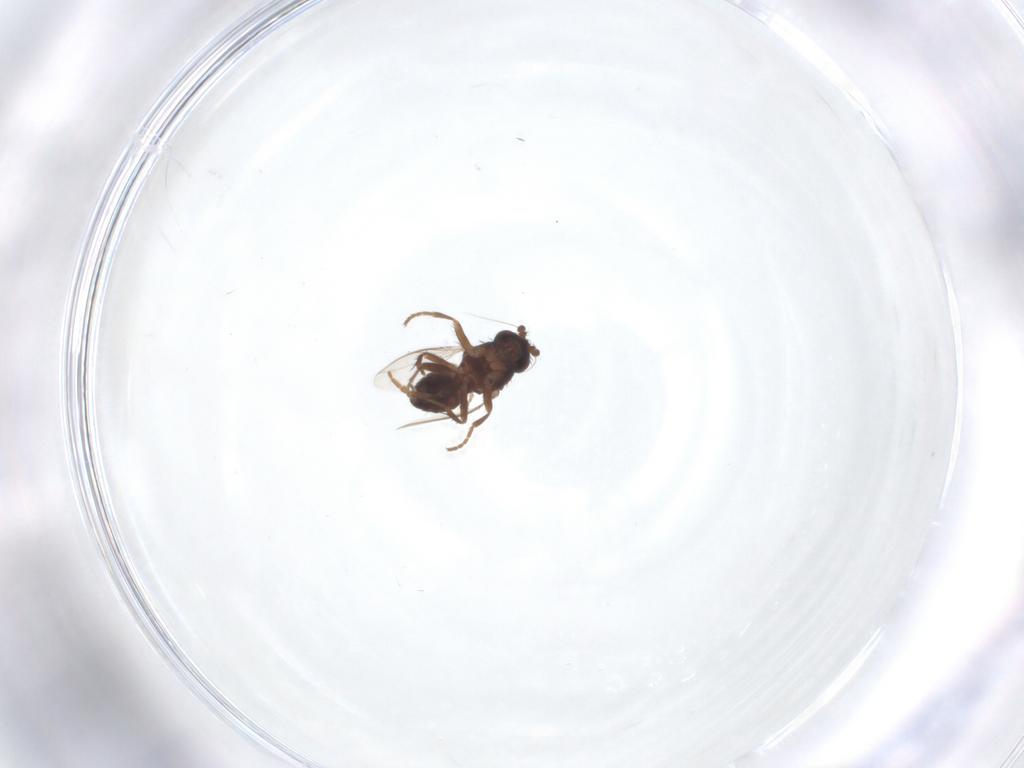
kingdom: Animalia
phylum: Arthropoda
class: Insecta
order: Diptera
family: Sphaeroceridae
